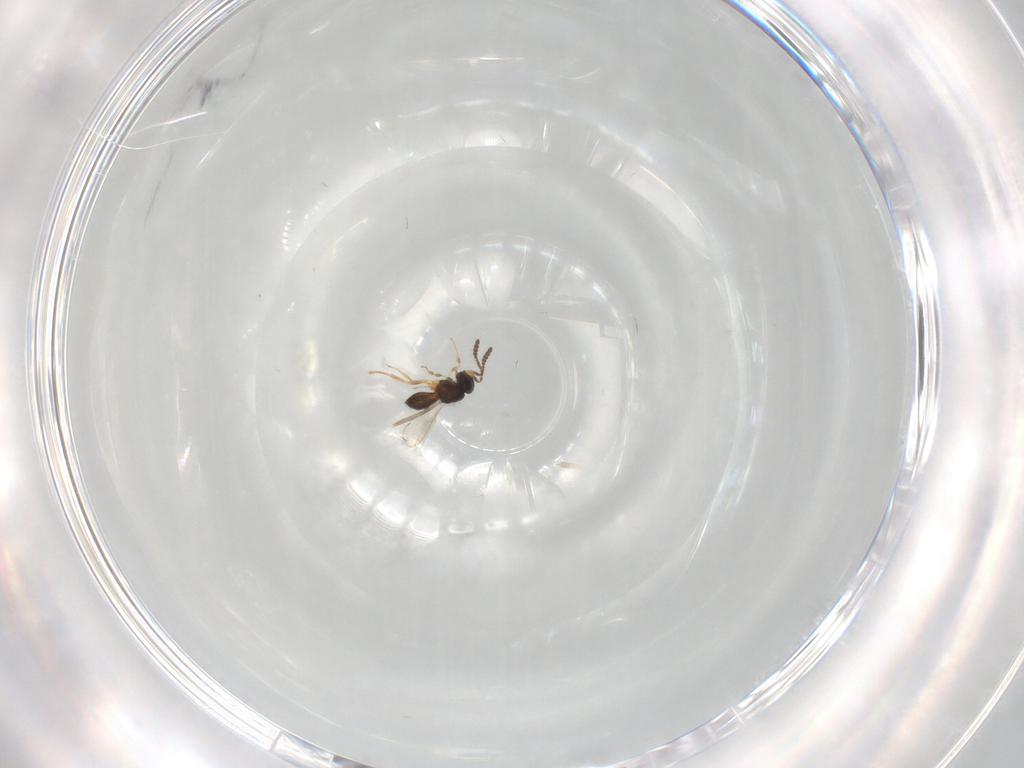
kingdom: Animalia
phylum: Arthropoda
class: Insecta
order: Hymenoptera
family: Scelionidae
